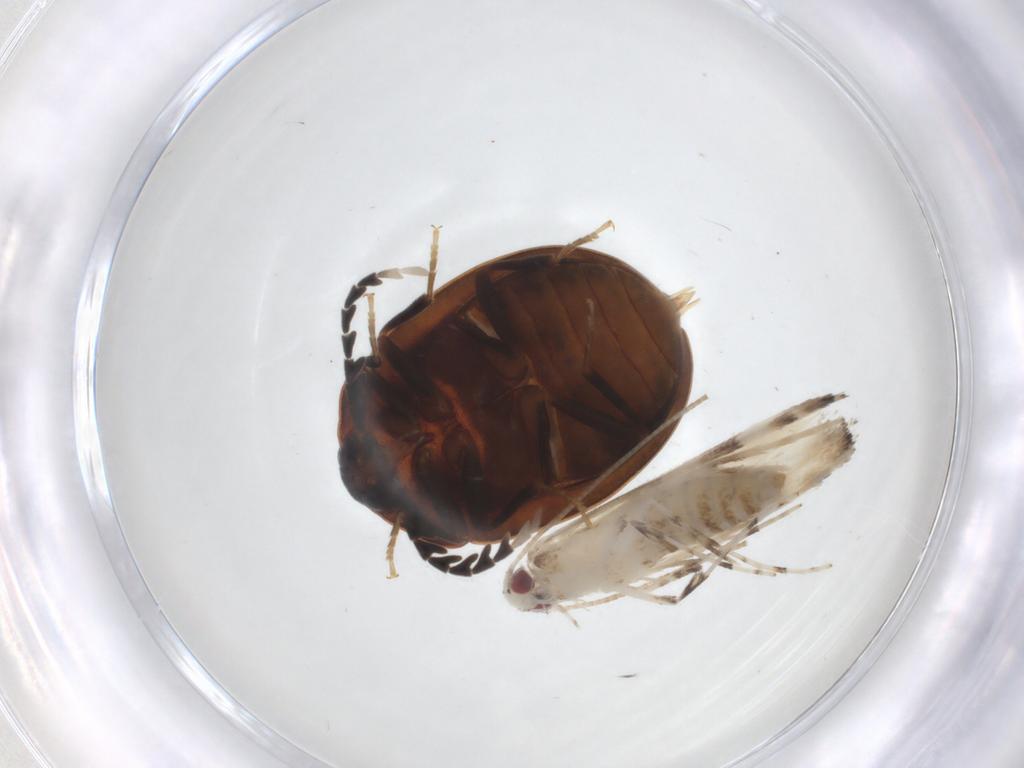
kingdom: Animalia
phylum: Arthropoda
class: Insecta
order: Coleoptera
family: Psephenidae
